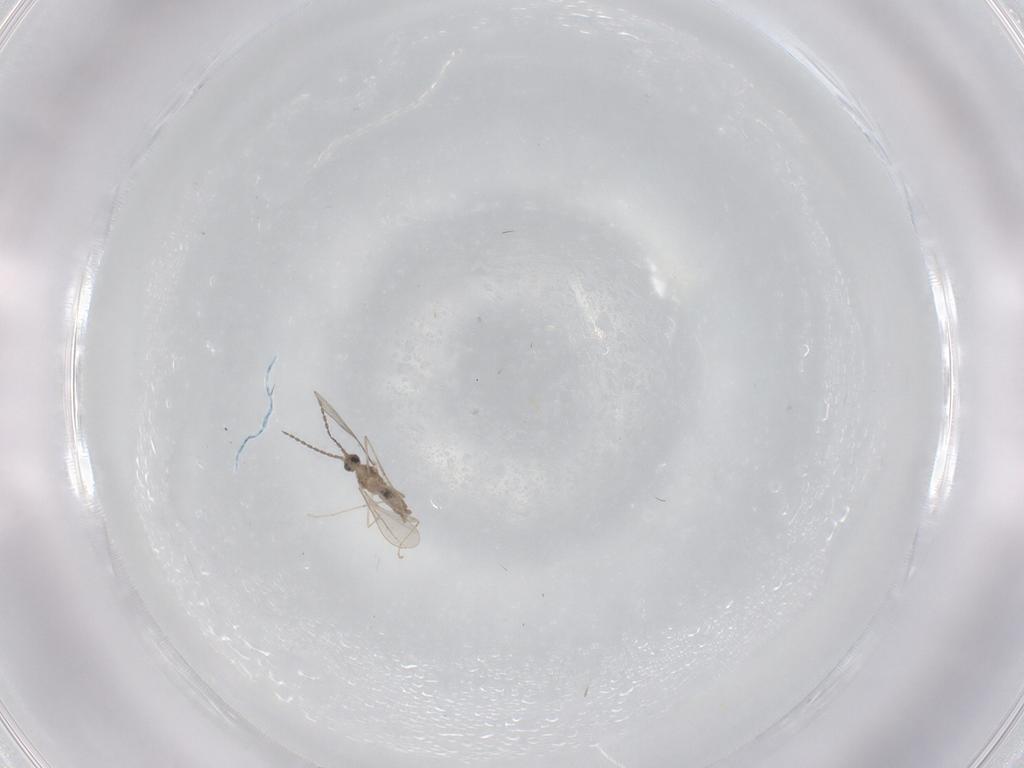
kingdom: Animalia
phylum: Arthropoda
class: Insecta
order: Diptera
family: Cecidomyiidae
